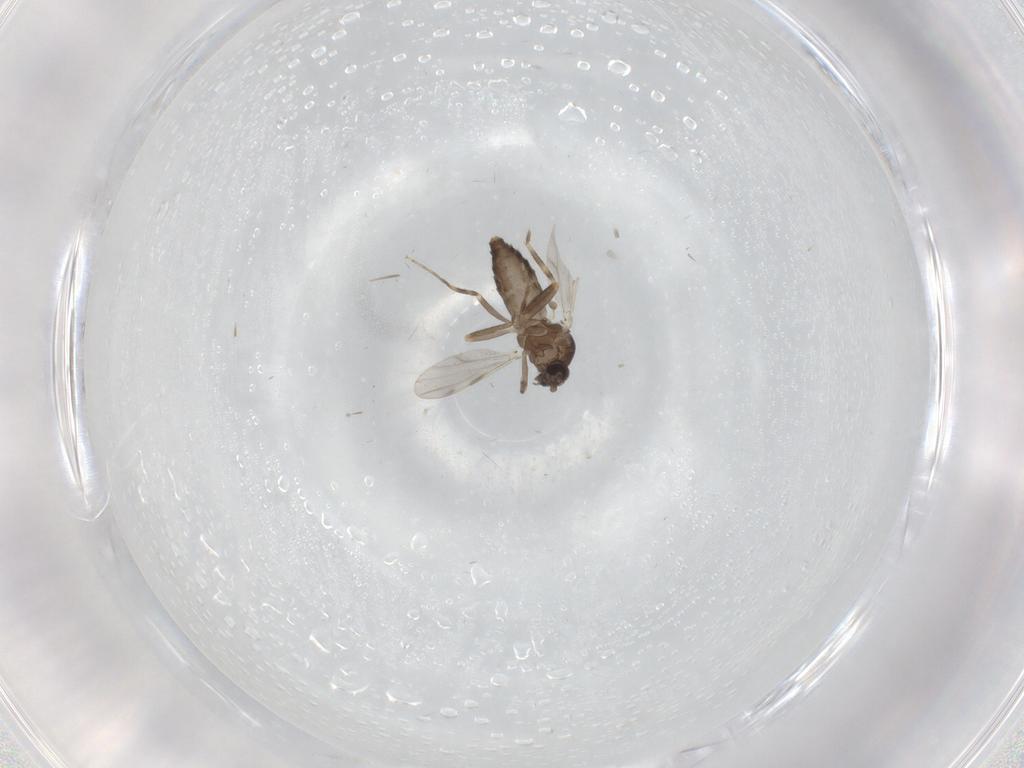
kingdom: Animalia
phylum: Arthropoda
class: Insecta
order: Diptera
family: Ceratopogonidae
